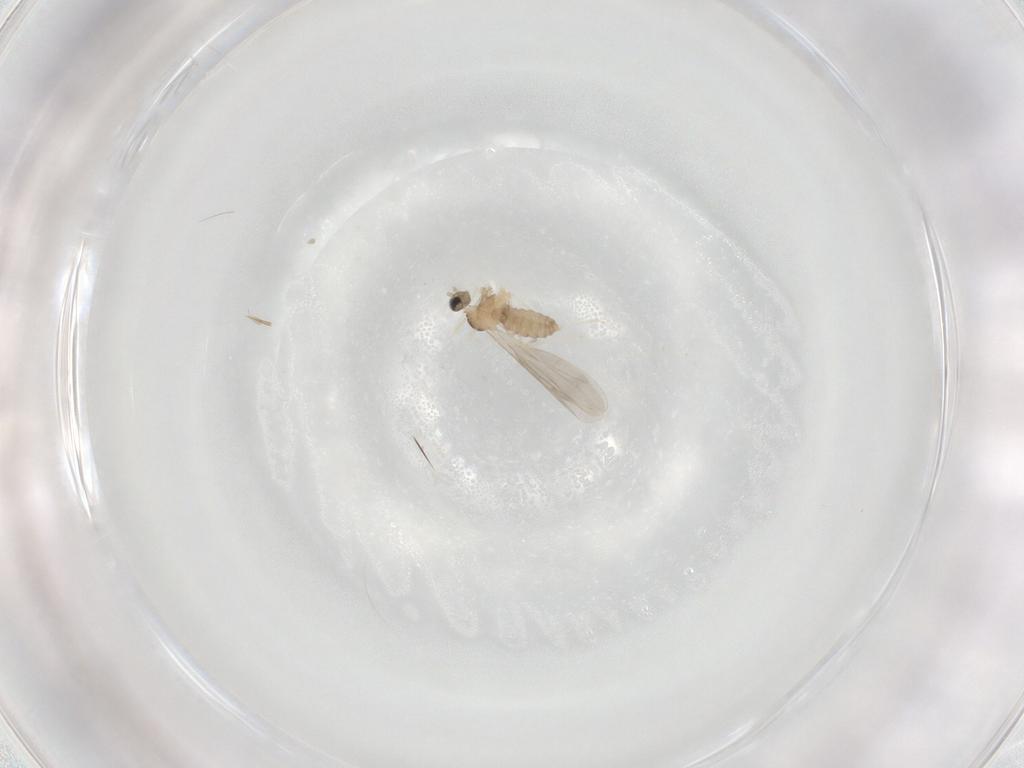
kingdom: Animalia
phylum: Arthropoda
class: Insecta
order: Diptera
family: Cecidomyiidae
